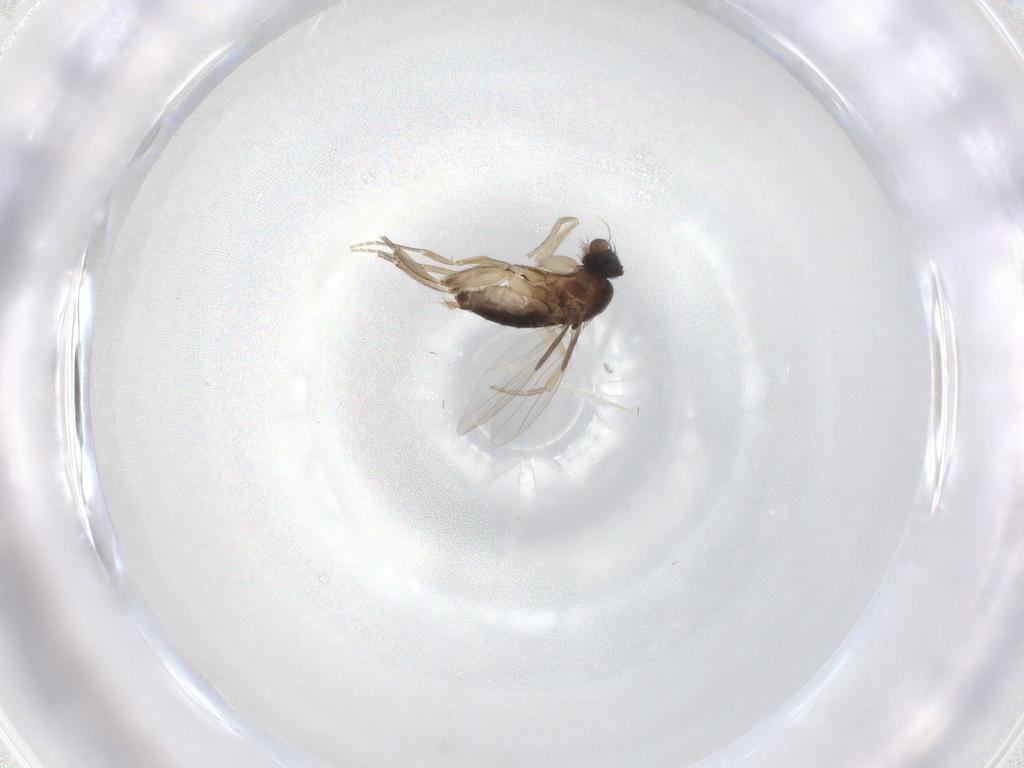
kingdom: Animalia
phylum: Arthropoda
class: Insecta
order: Diptera
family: Phoridae
